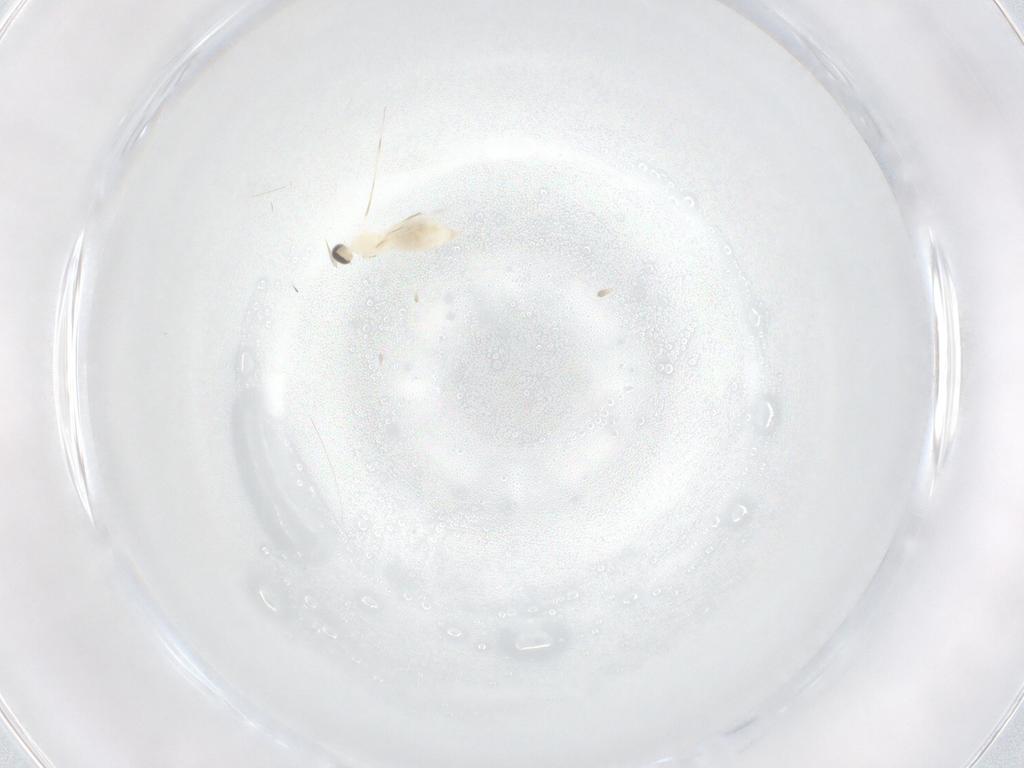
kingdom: Animalia
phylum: Arthropoda
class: Insecta
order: Diptera
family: Cecidomyiidae
